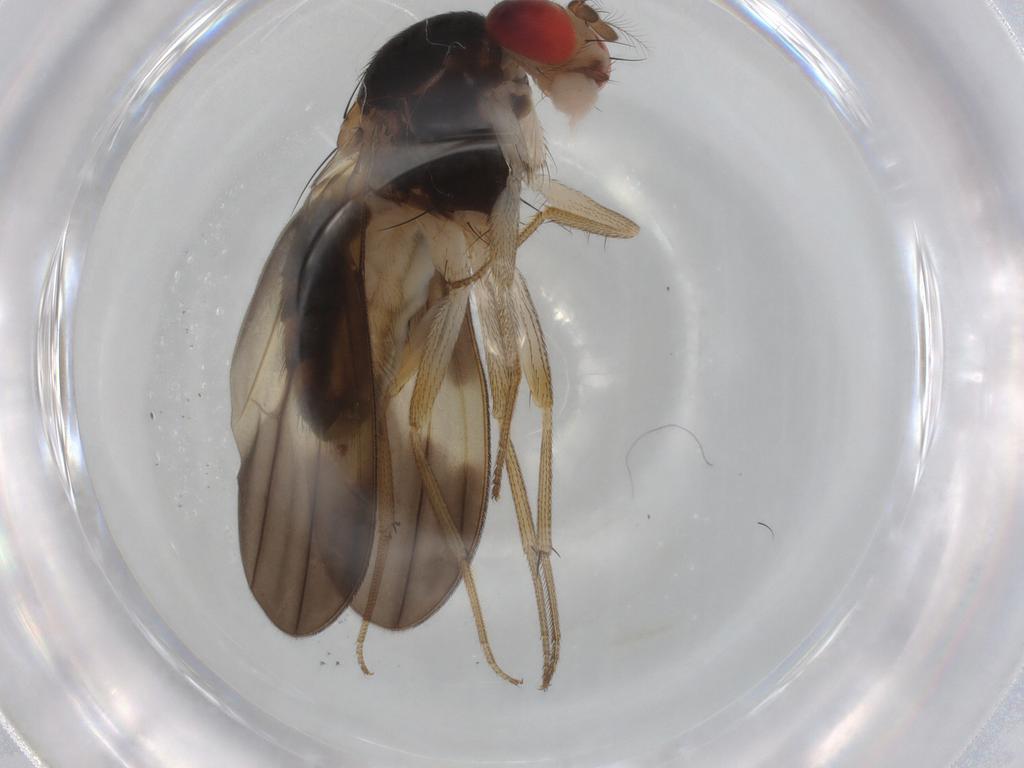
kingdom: Animalia
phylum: Arthropoda
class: Insecta
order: Diptera
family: Drosophilidae
